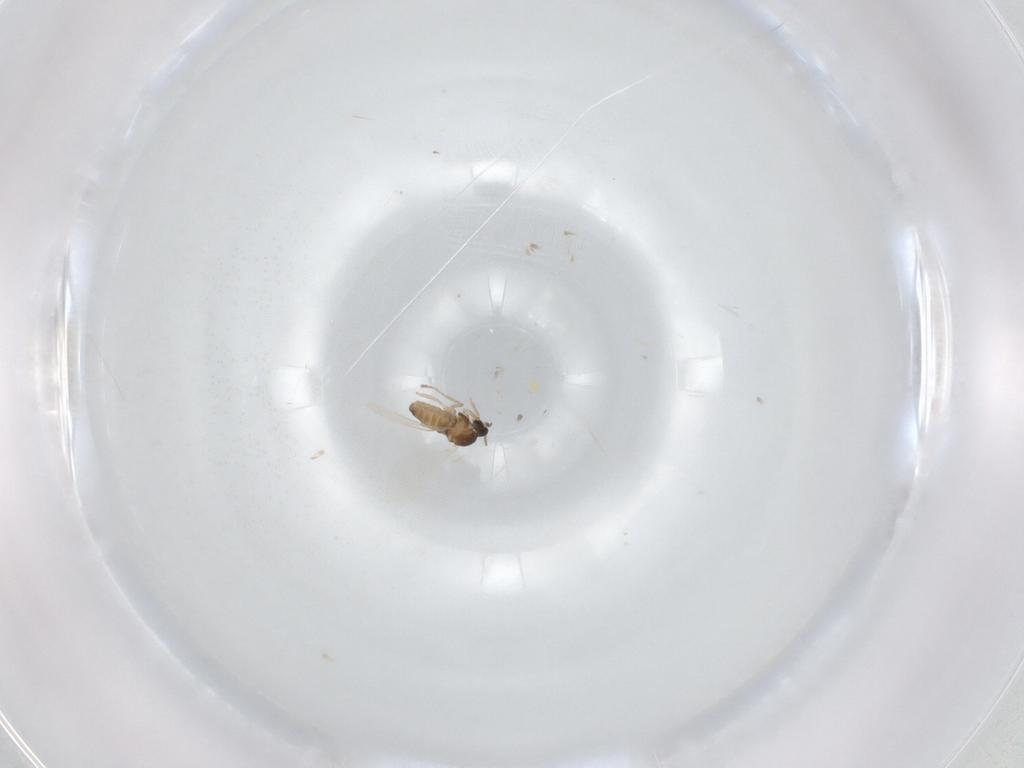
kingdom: Animalia
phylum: Arthropoda
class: Insecta
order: Diptera
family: Cecidomyiidae
